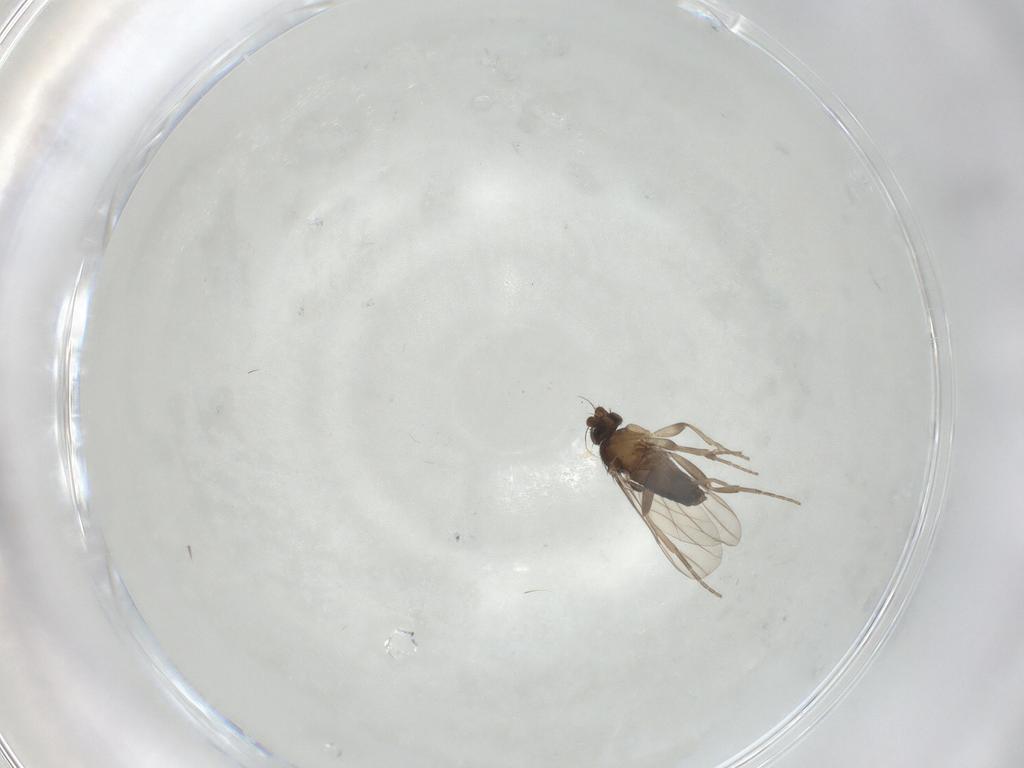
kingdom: Animalia
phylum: Arthropoda
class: Insecta
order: Diptera
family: Phoridae
